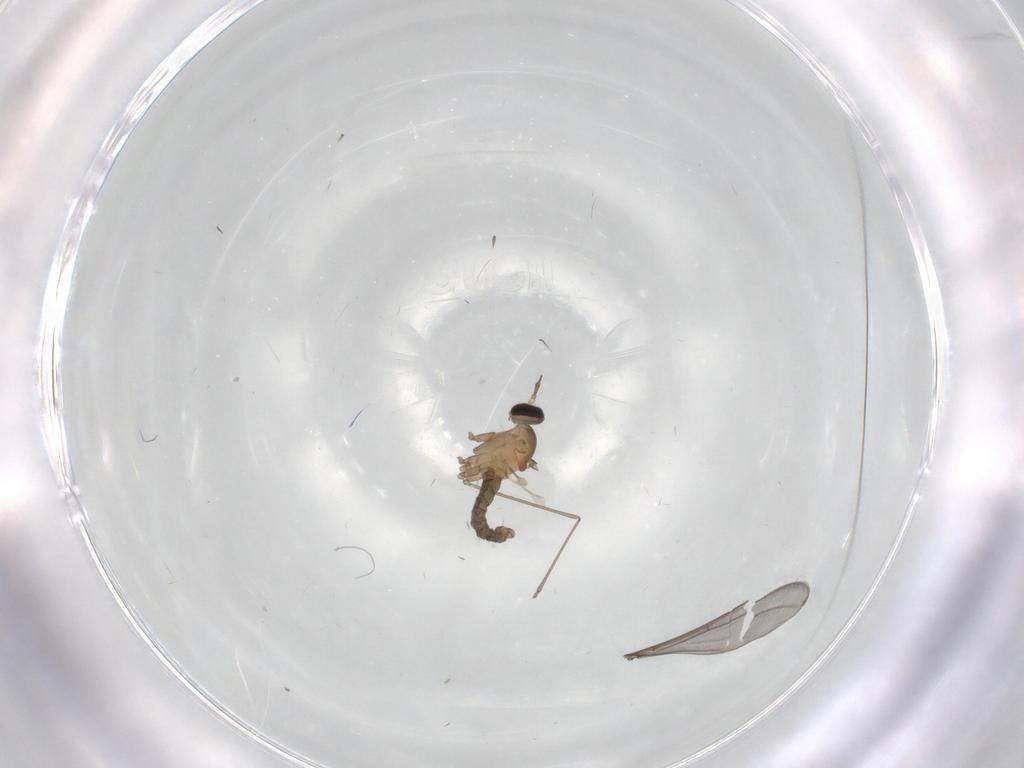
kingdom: Animalia
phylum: Arthropoda
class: Insecta
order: Diptera
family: Cecidomyiidae
